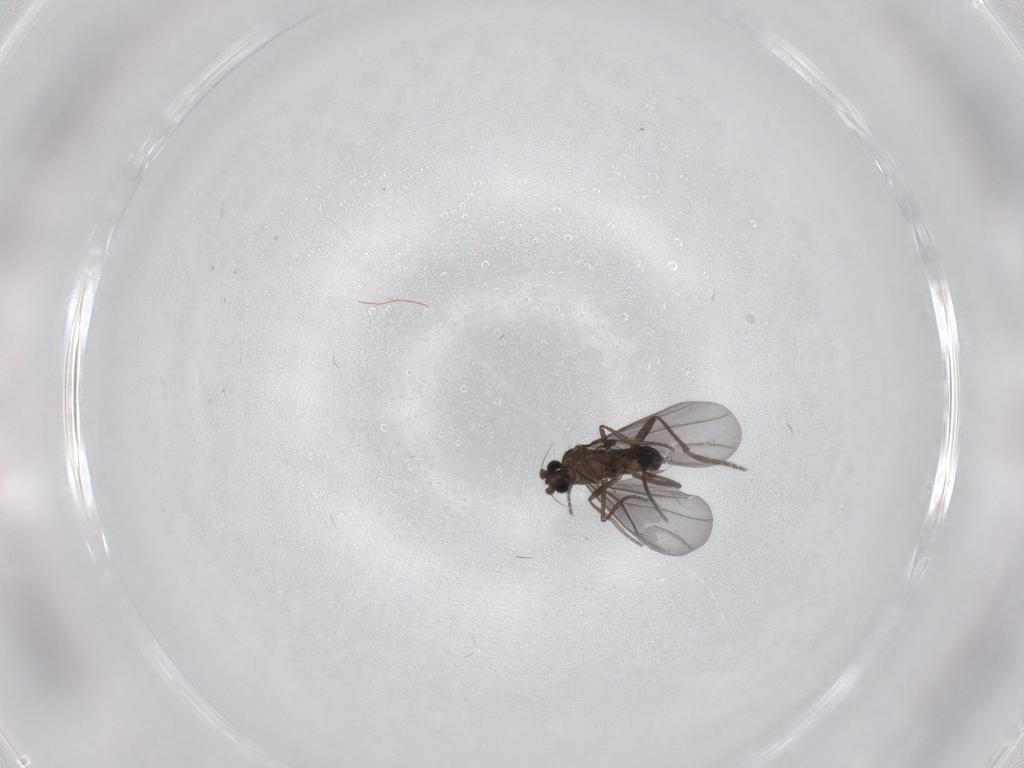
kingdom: Animalia
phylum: Arthropoda
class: Insecta
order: Diptera
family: Phoridae
